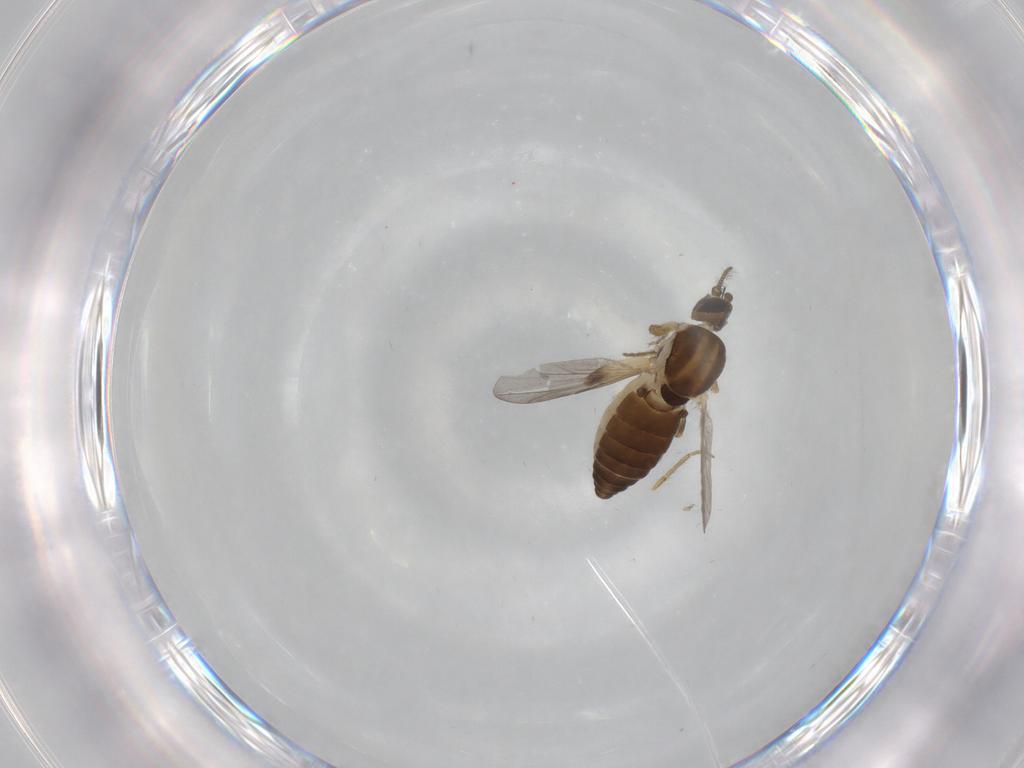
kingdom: Animalia
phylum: Arthropoda
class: Insecta
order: Diptera
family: Ceratopogonidae
